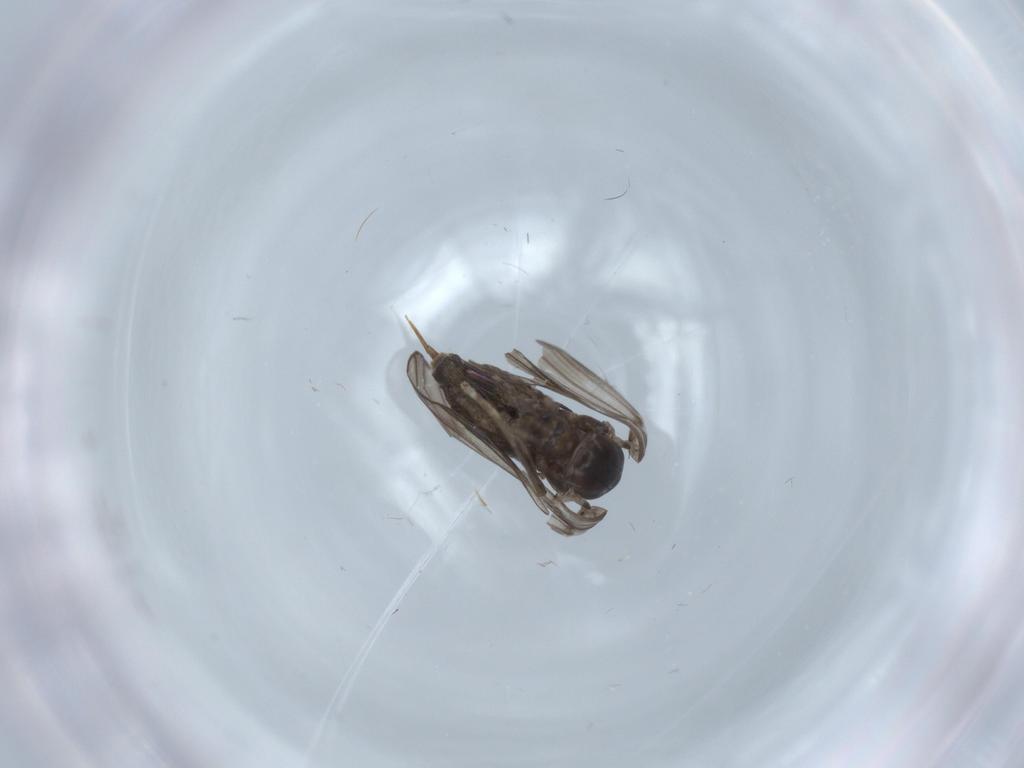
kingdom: Animalia
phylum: Arthropoda
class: Insecta
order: Diptera
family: Psychodidae
